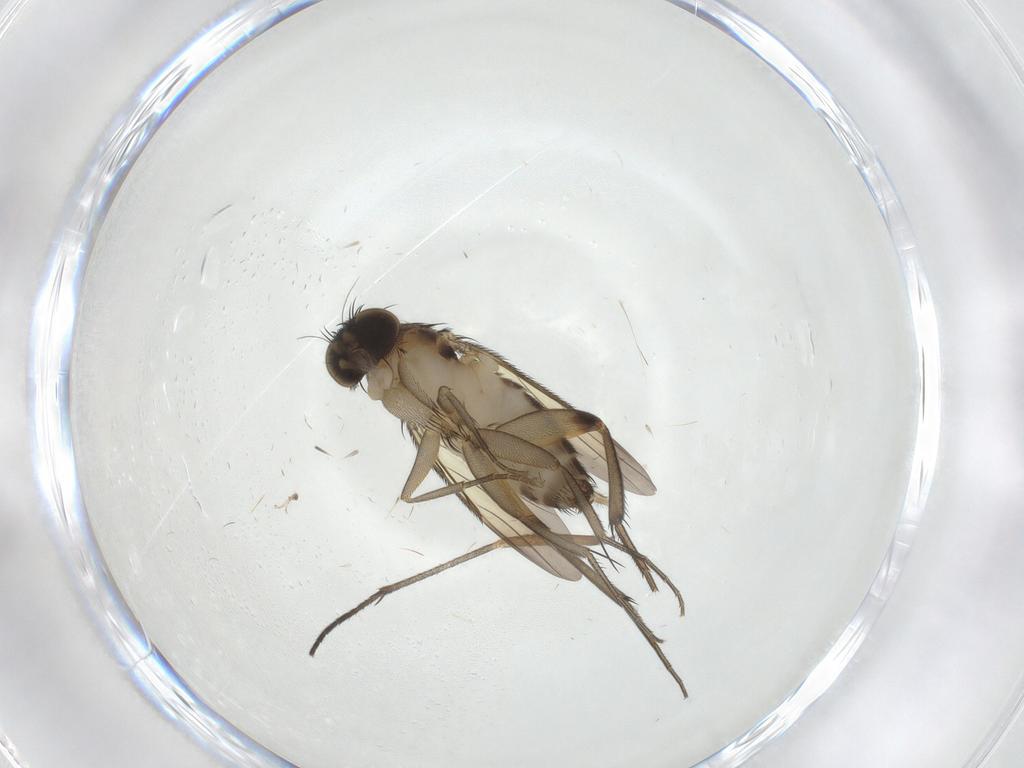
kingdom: Animalia
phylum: Arthropoda
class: Insecta
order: Diptera
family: Phoridae
